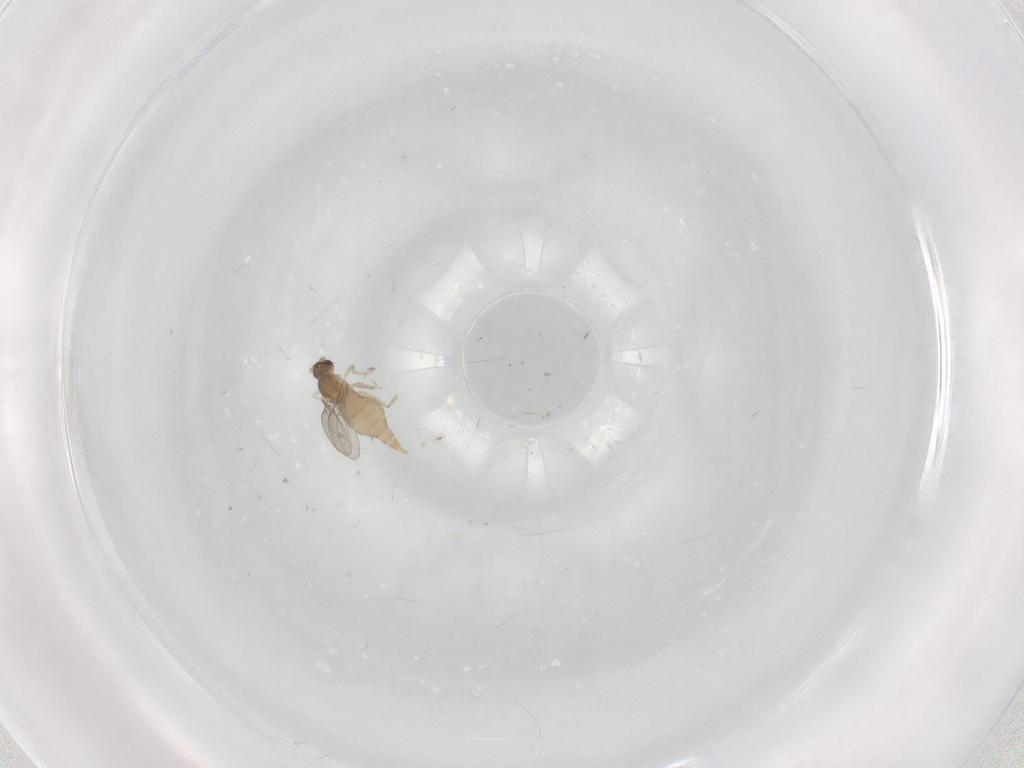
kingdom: Animalia
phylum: Arthropoda
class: Insecta
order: Diptera
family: Cecidomyiidae
